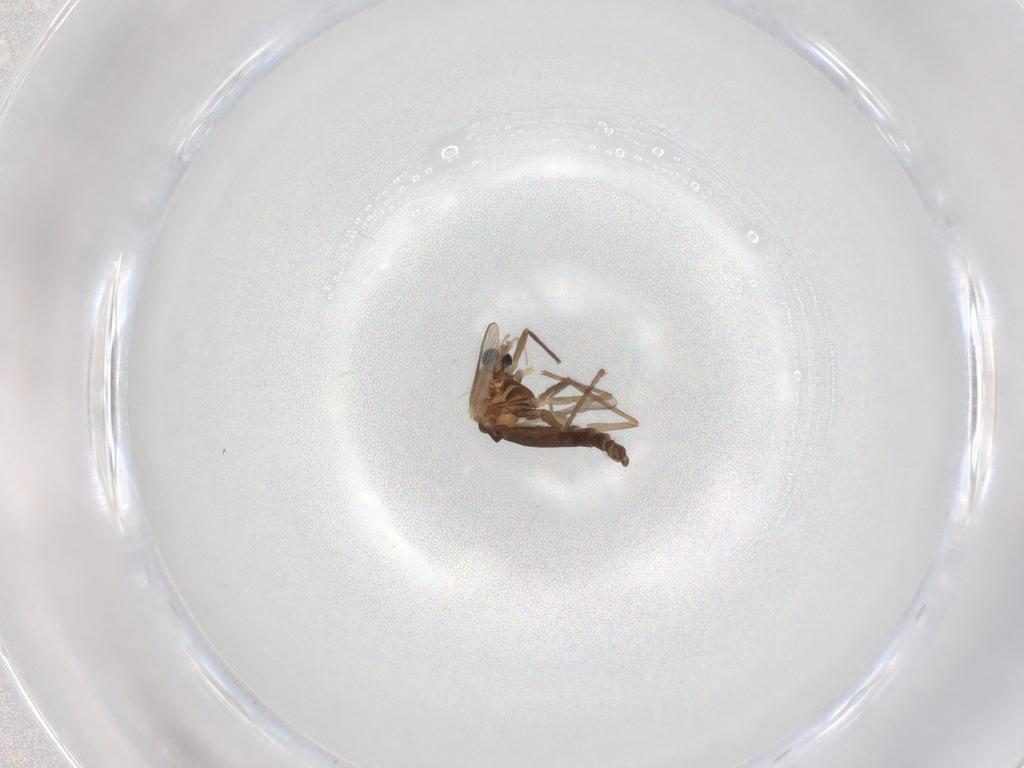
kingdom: Animalia
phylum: Arthropoda
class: Insecta
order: Diptera
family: Chironomidae
